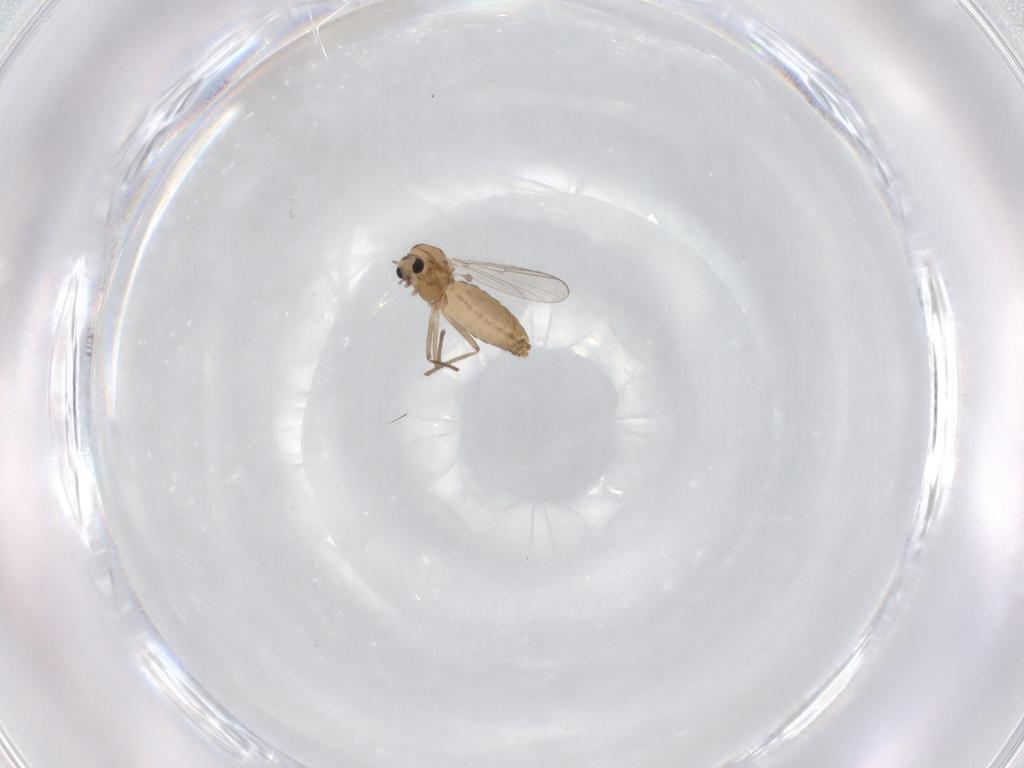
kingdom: Animalia
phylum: Arthropoda
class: Insecta
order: Diptera
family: Chironomidae
